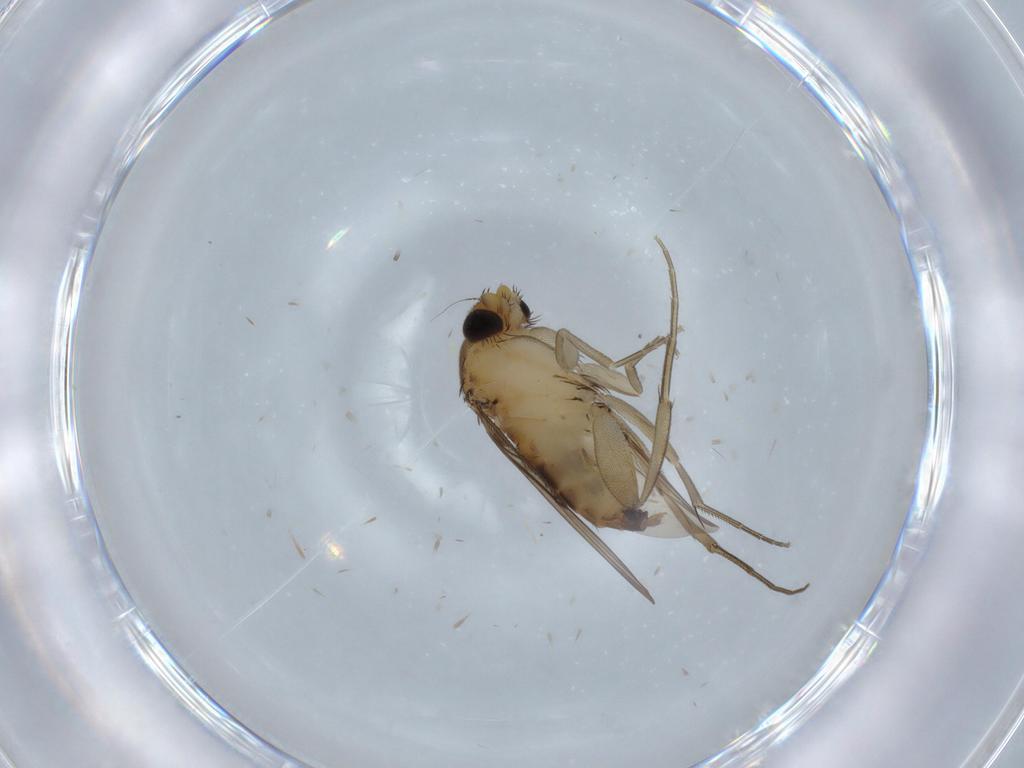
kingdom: Animalia
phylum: Arthropoda
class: Insecta
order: Diptera
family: Phoridae
